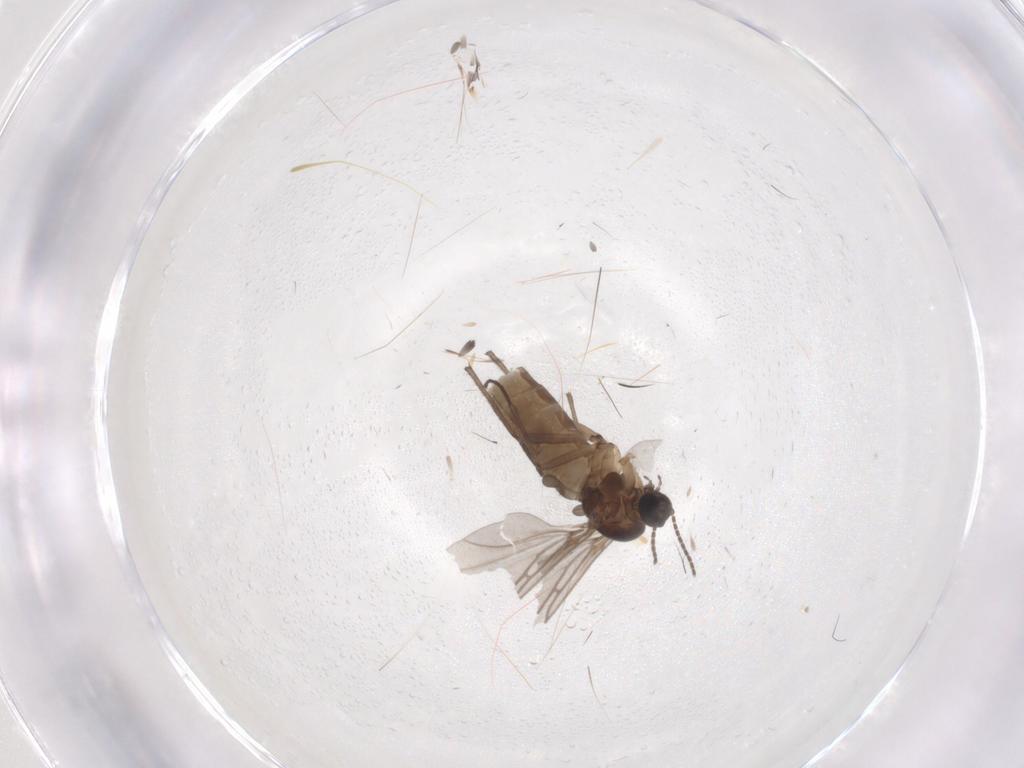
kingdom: Animalia
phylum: Arthropoda
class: Insecta
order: Diptera
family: Sciaridae
